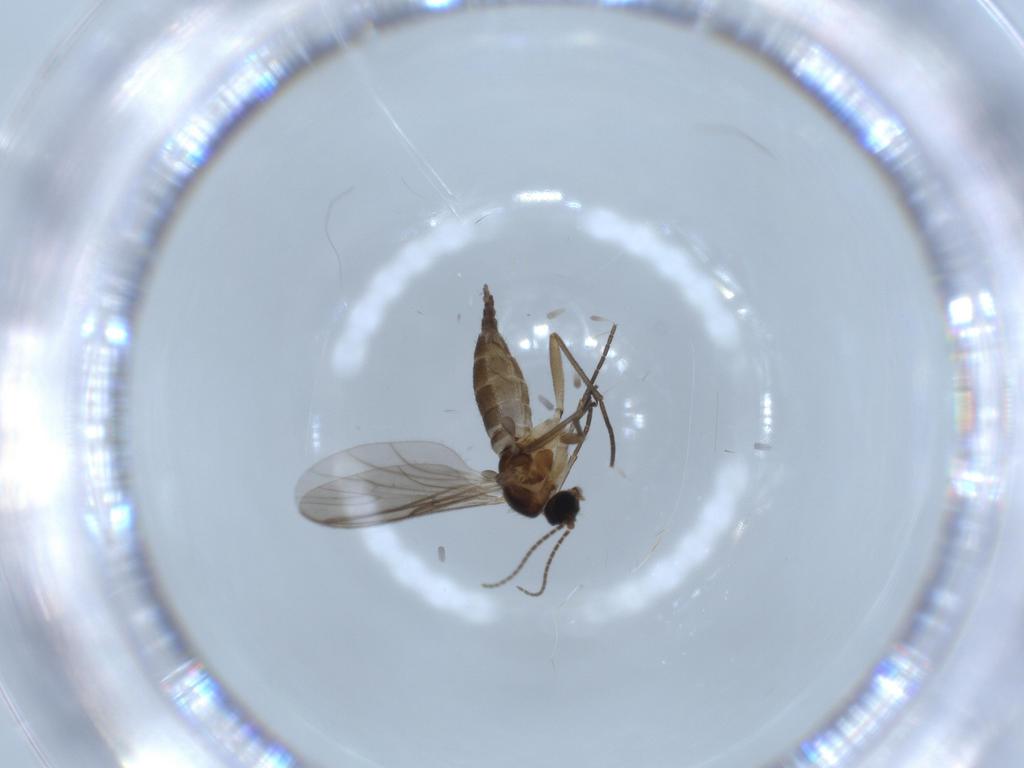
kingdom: Animalia
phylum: Arthropoda
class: Insecta
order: Diptera
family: Sciaridae
